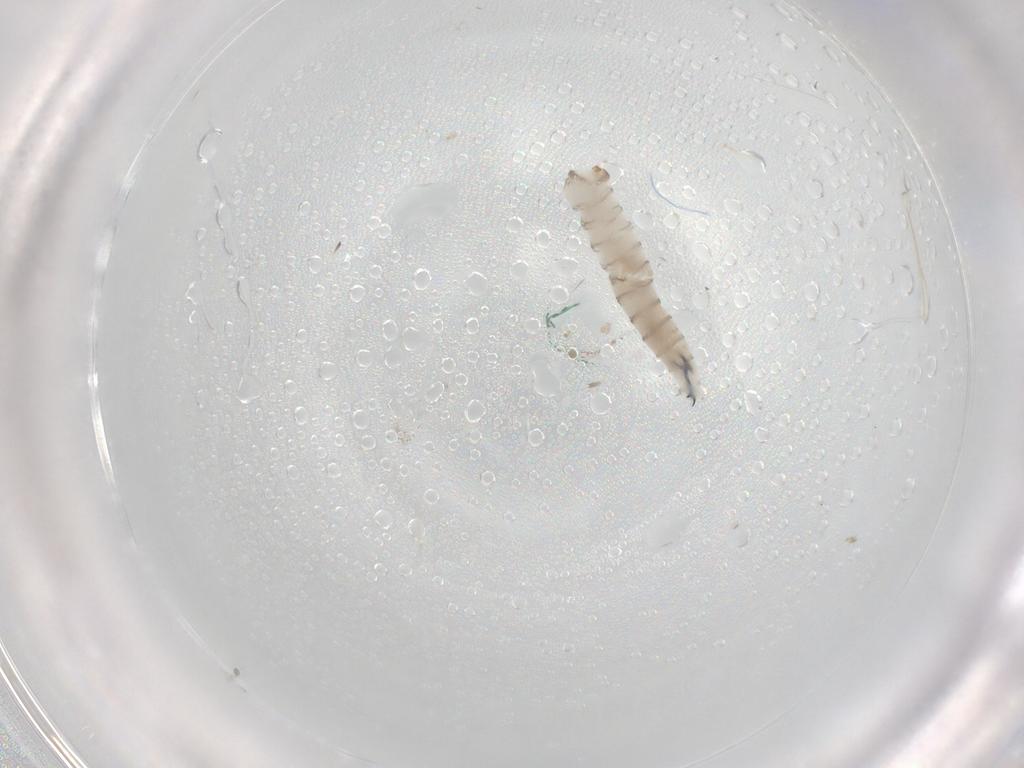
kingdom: Animalia
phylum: Arthropoda
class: Insecta
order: Diptera
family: Sarcophagidae
